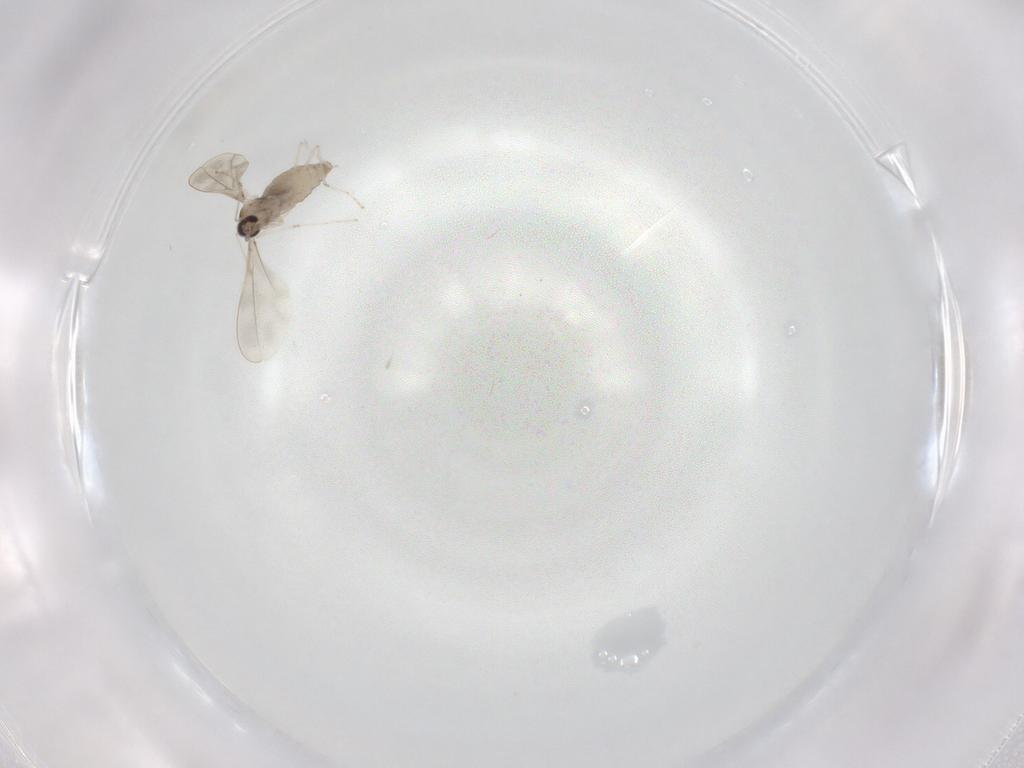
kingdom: Animalia
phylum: Arthropoda
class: Insecta
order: Diptera
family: Cecidomyiidae
